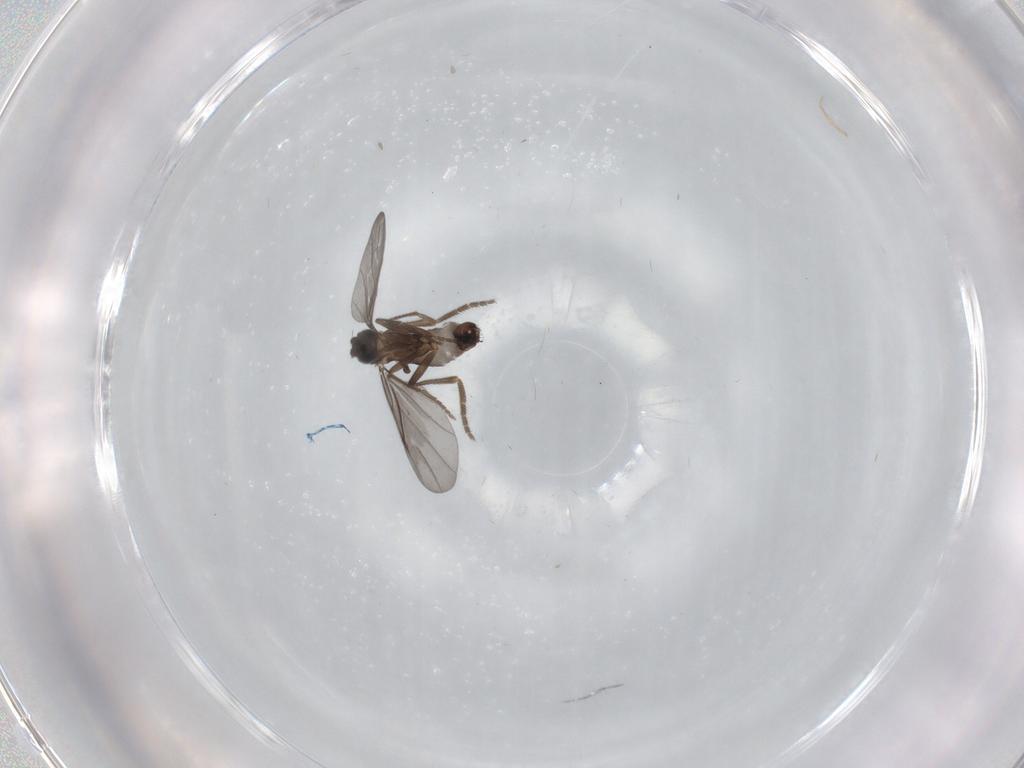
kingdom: Animalia
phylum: Arthropoda
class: Insecta
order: Diptera
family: Phoridae
